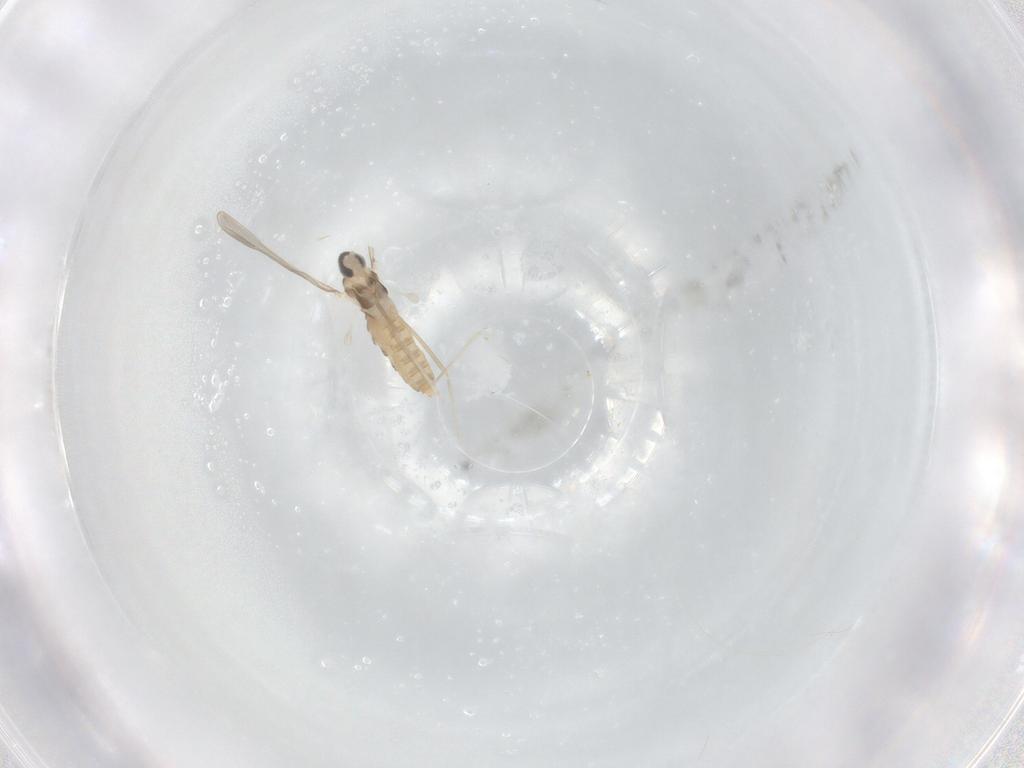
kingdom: Animalia
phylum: Arthropoda
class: Insecta
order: Diptera
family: Cecidomyiidae
